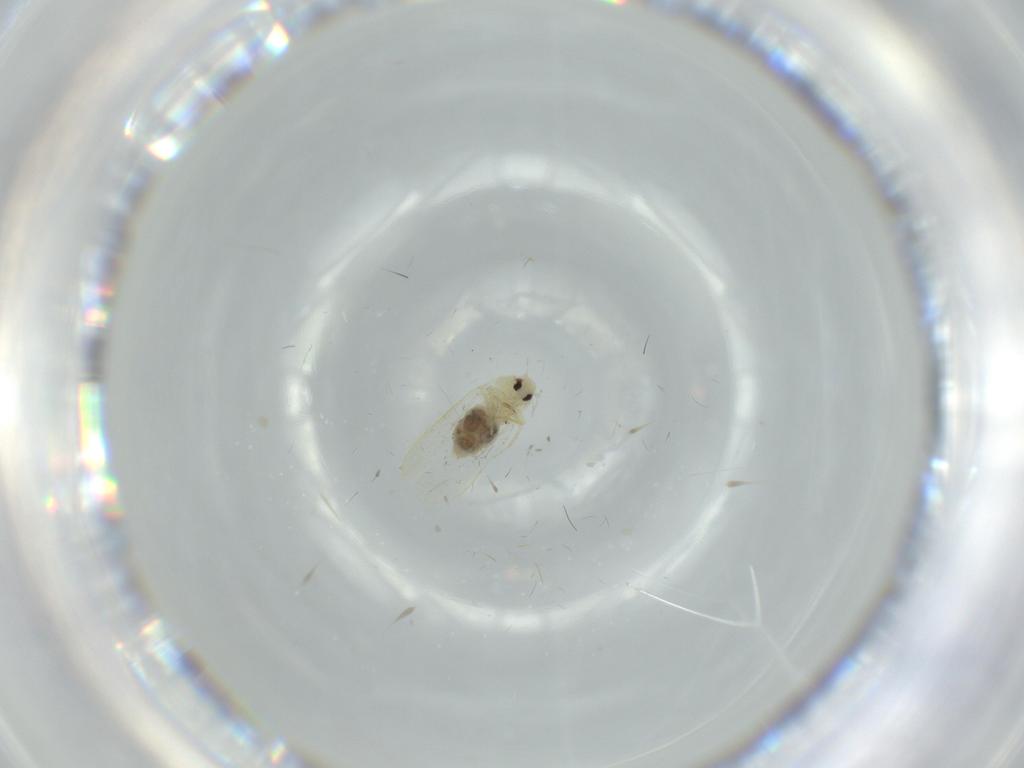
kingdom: Animalia
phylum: Arthropoda
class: Insecta
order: Hemiptera
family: Aleyrodidae
